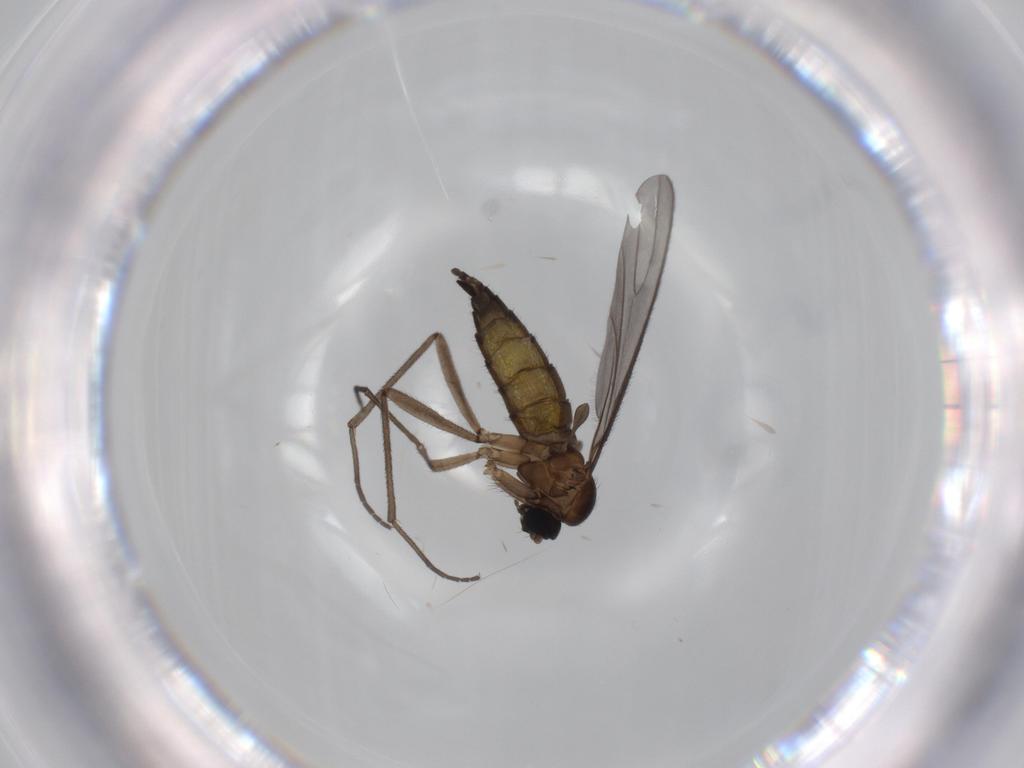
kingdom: Animalia
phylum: Arthropoda
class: Insecta
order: Diptera
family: Sciaridae
